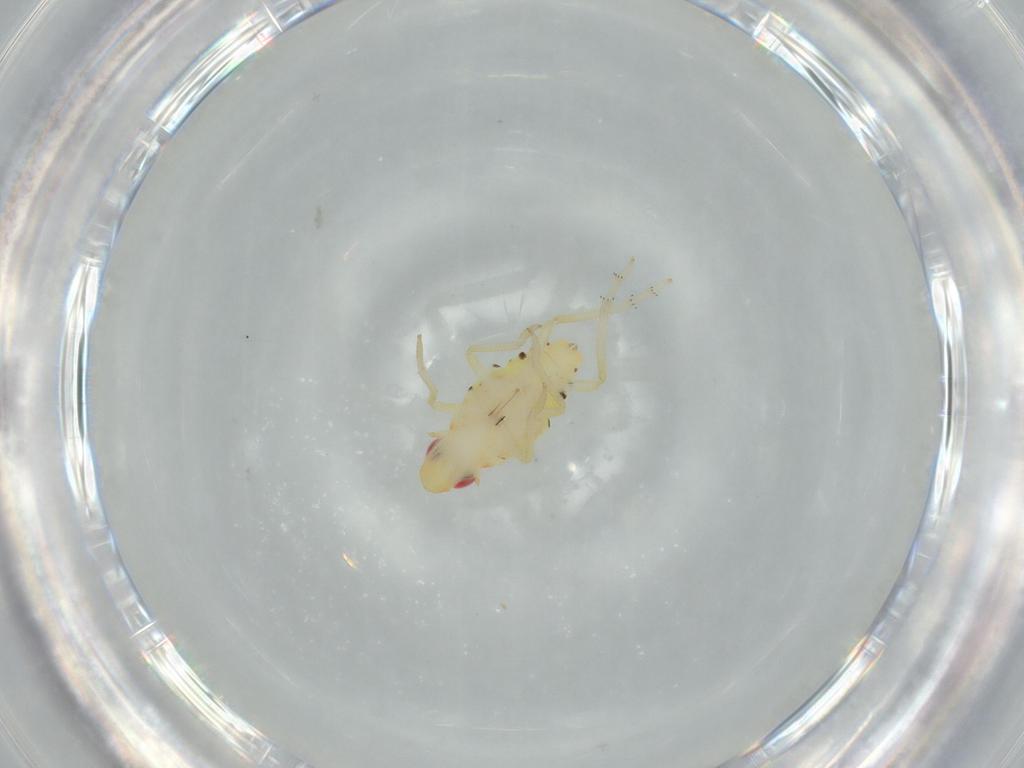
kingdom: Animalia
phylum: Arthropoda
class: Insecta
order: Hemiptera
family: Tropiduchidae
